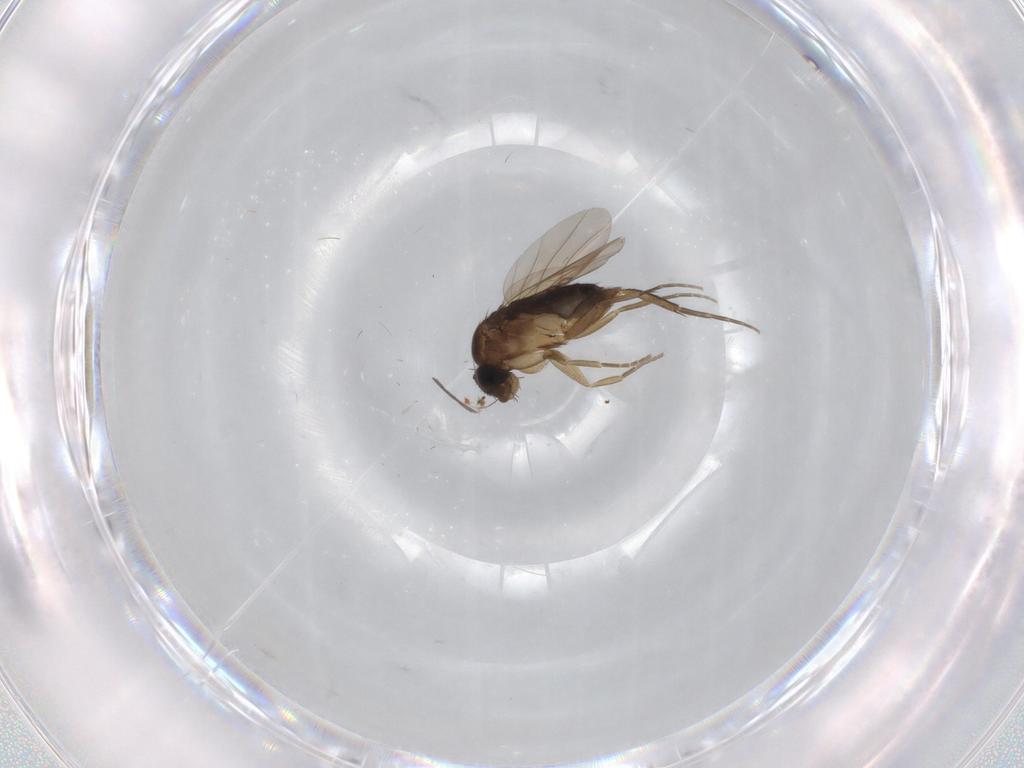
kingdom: Animalia
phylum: Arthropoda
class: Insecta
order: Diptera
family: Phoridae
